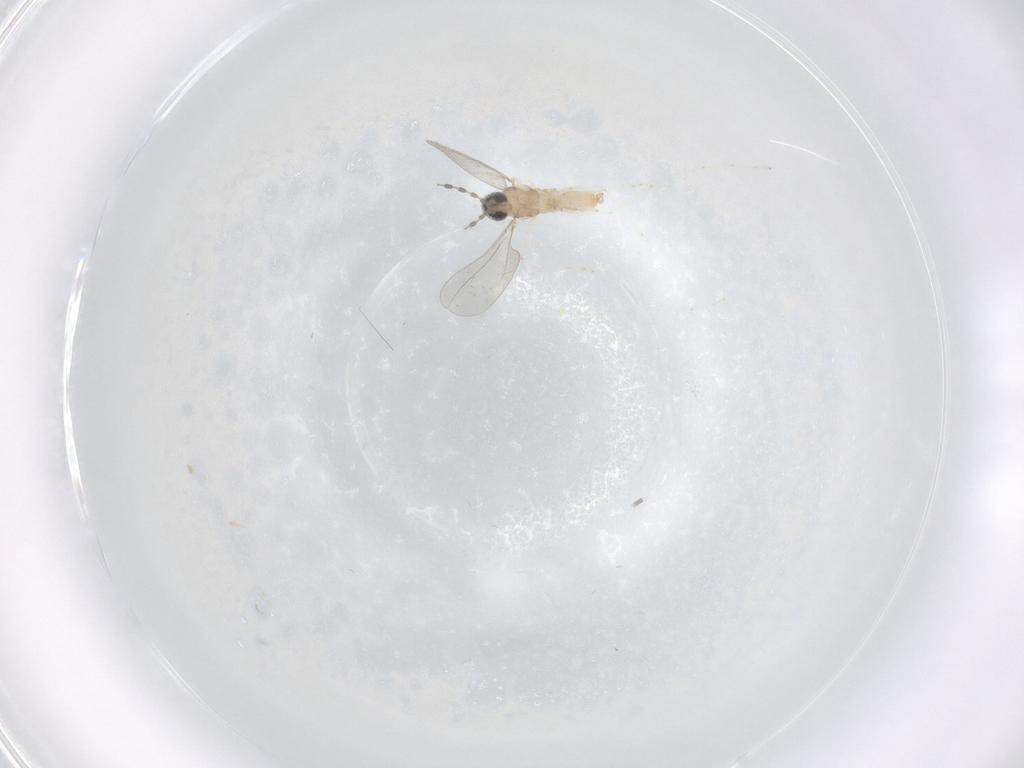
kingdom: Animalia
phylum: Arthropoda
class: Insecta
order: Diptera
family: Cecidomyiidae
